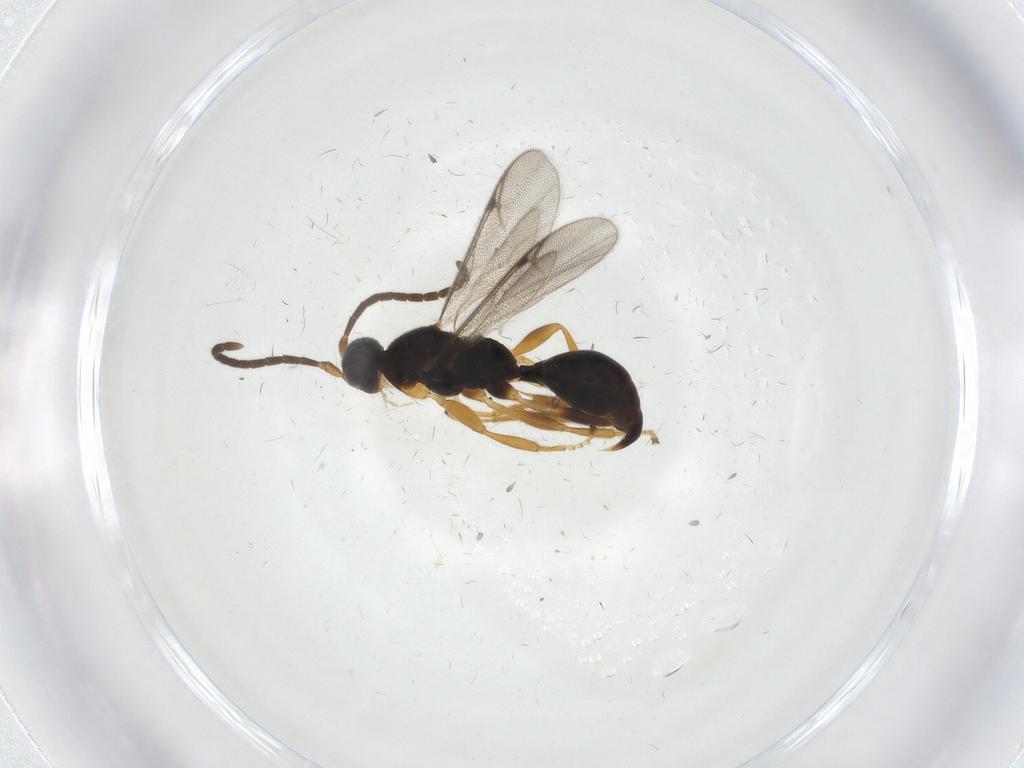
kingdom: Animalia
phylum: Arthropoda
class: Insecta
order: Hymenoptera
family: Proctotrupidae
